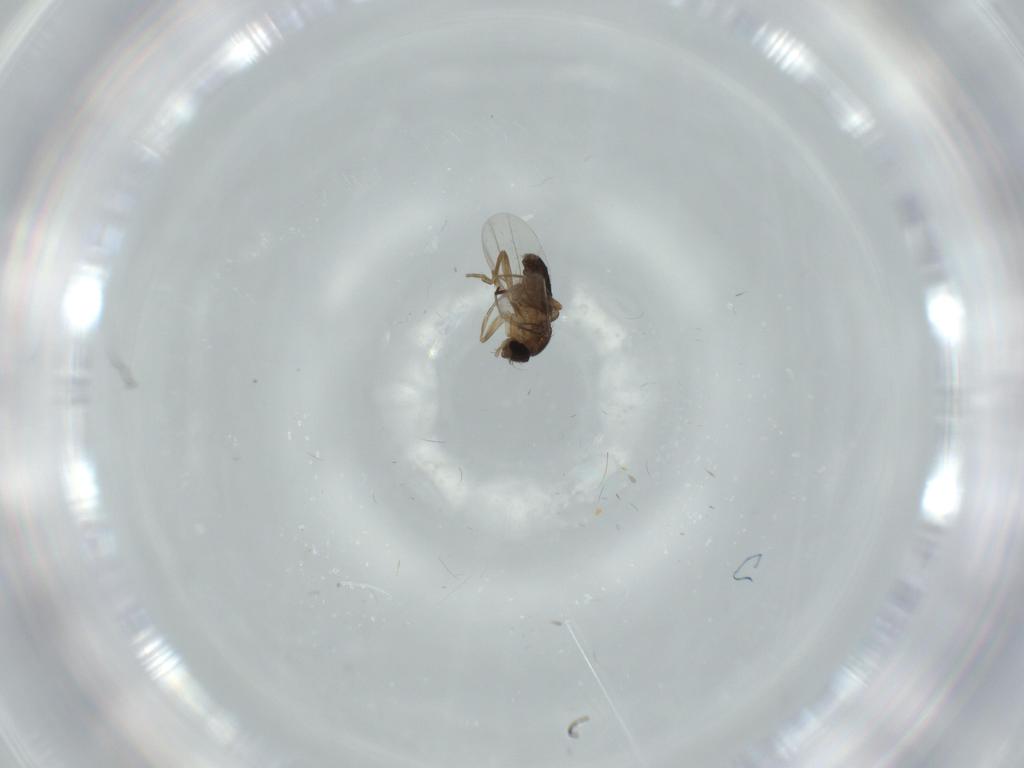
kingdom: Animalia
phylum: Arthropoda
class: Insecta
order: Diptera
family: Phoridae
